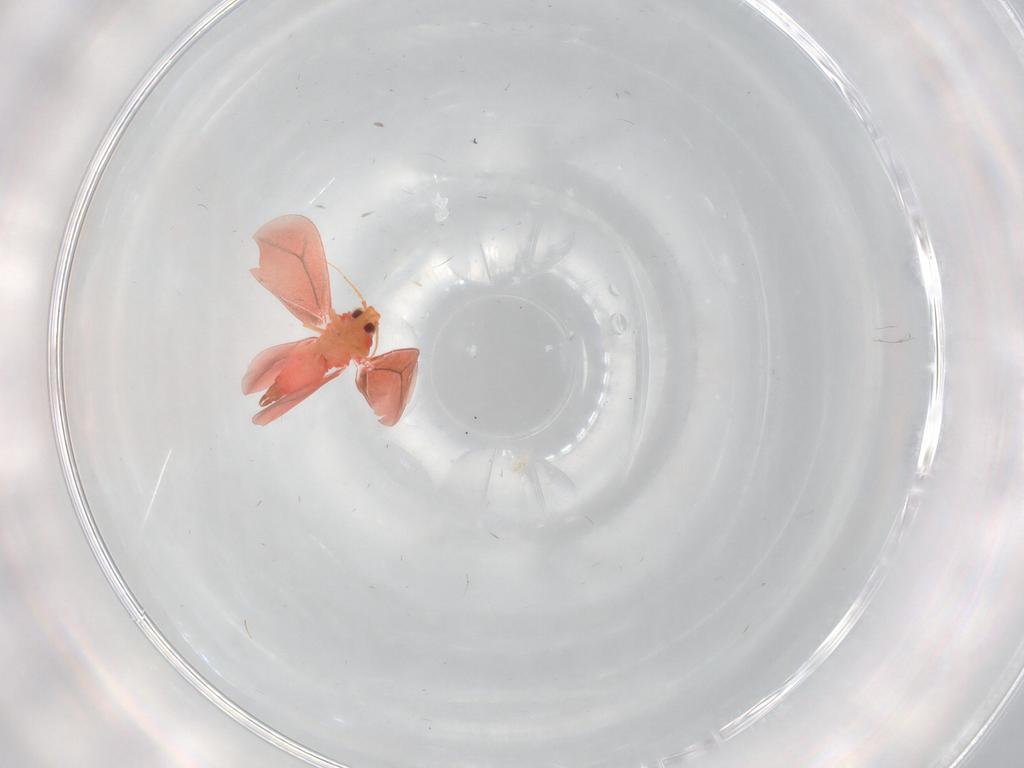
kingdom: Animalia
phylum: Arthropoda
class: Insecta
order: Hemiptera
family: Aleyrodidae
